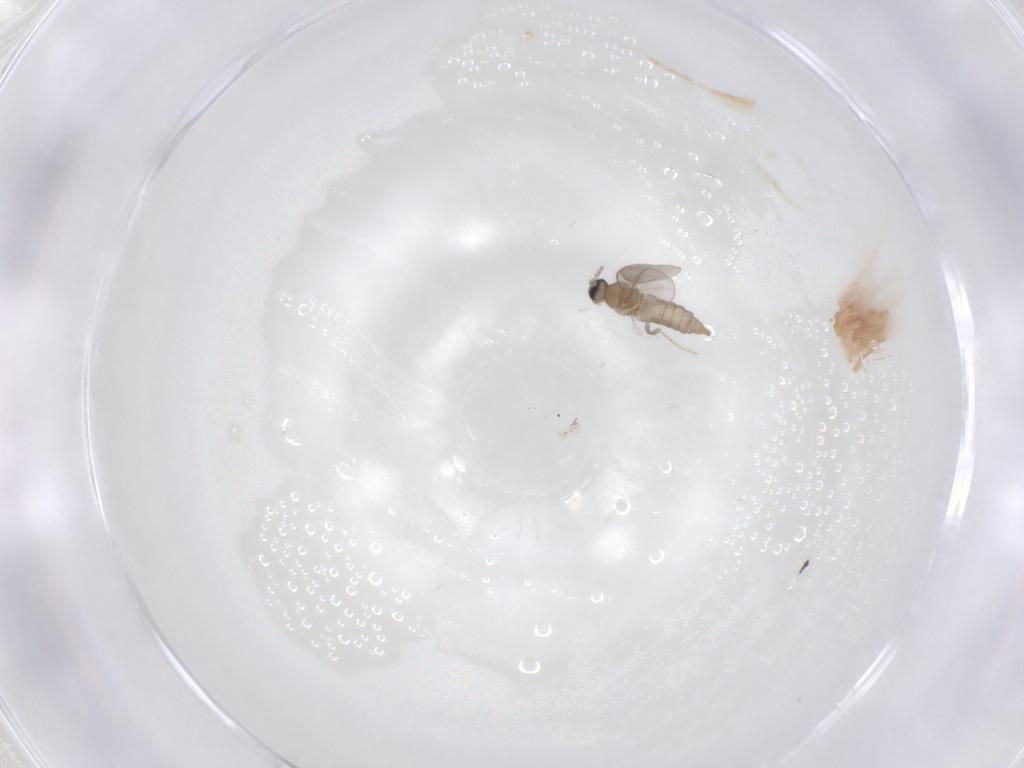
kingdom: Animalia
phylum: Arthropoda
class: Insecta
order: Diptera
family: Cecidomyiidae
